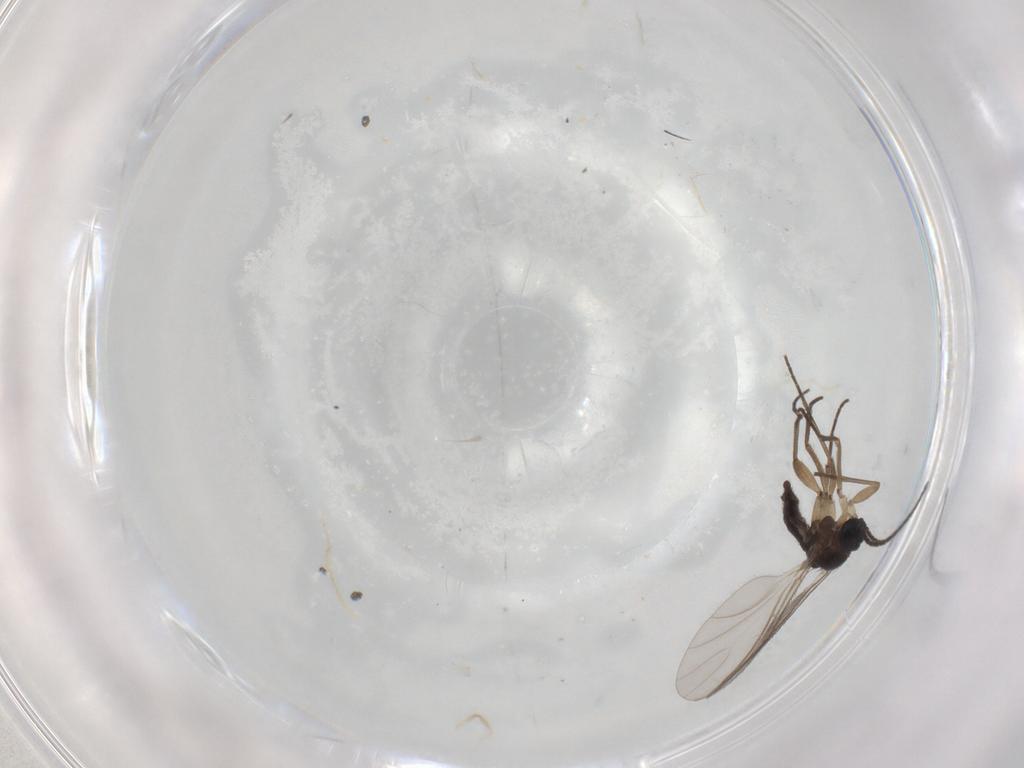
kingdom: Animalia
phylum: Arthropoda
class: Insecta
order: Diptera
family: Sciaridae
